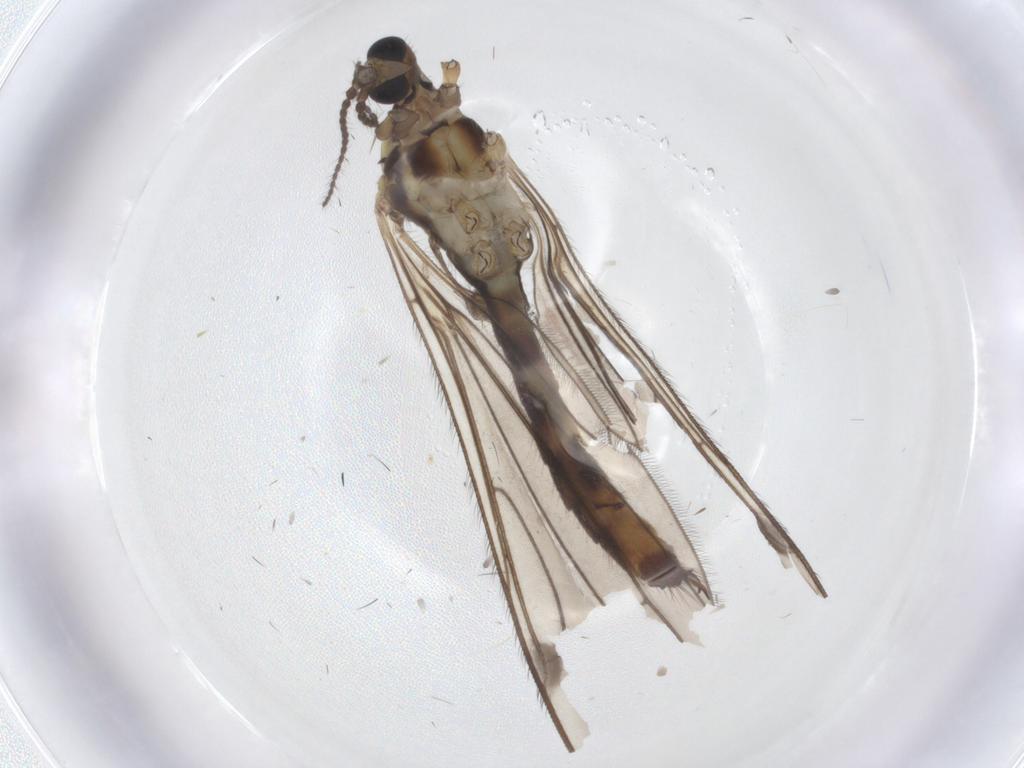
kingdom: Animalia
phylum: Arthropoda
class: Insecta
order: Diptera
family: Limoniidae
